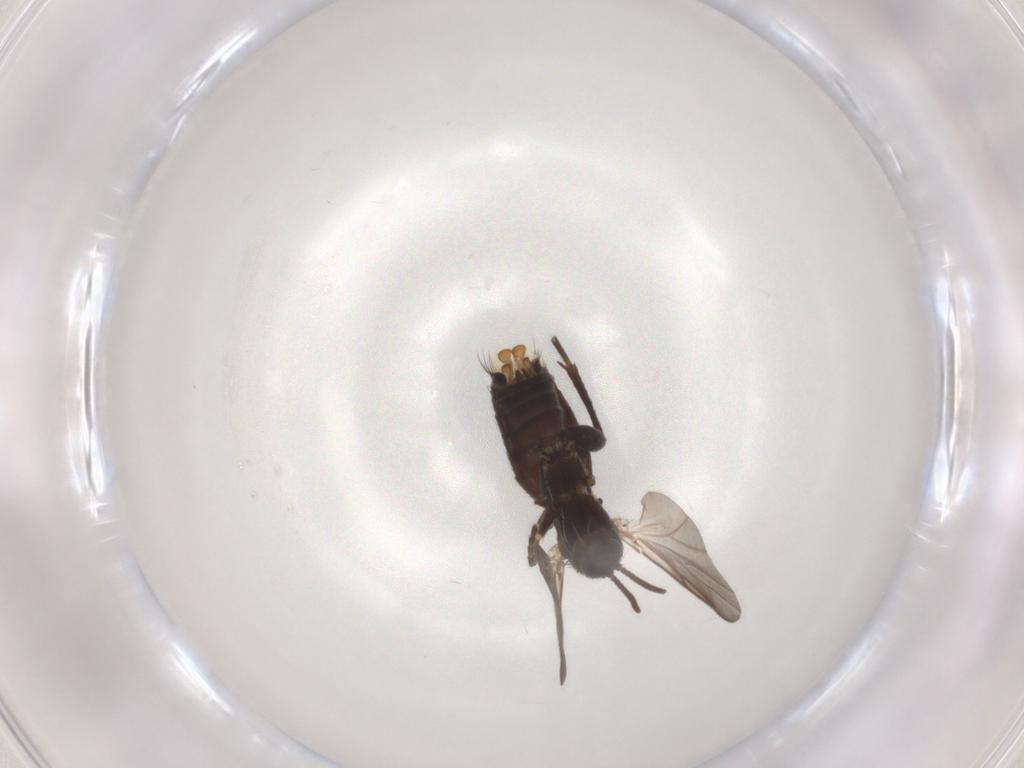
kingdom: Animalia
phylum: Arthropoda
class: Insecta
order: Diptera
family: Mycetophilidae
